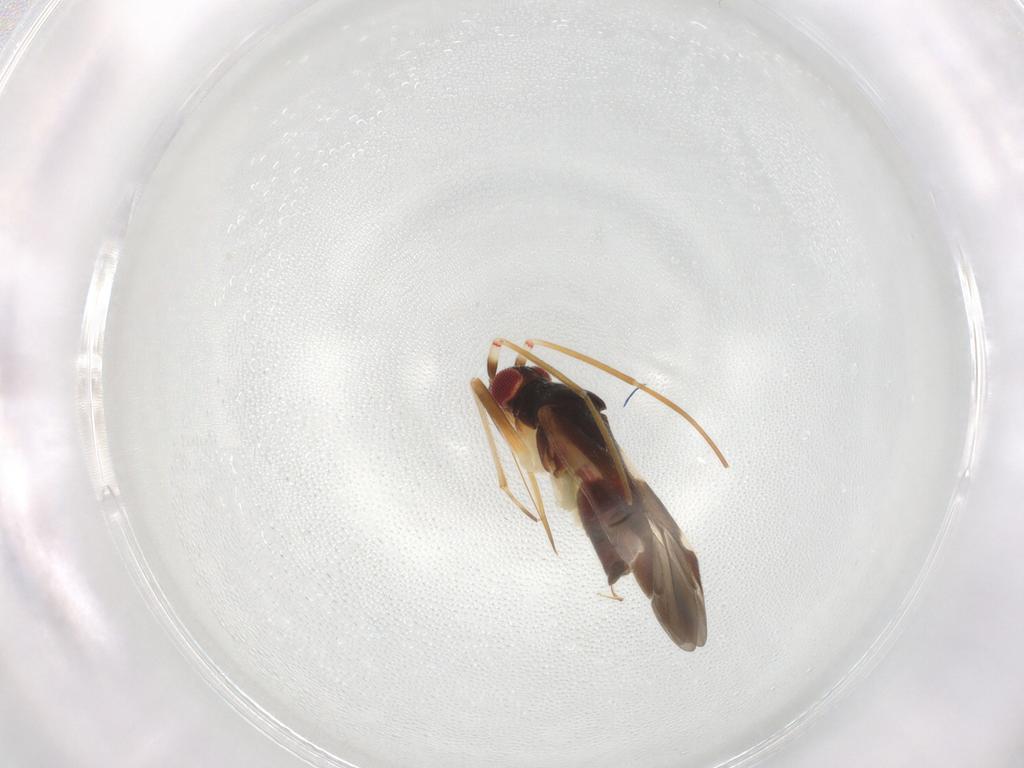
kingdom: Animalia
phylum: Arthropoda
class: Insecta
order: Hemiptera
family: Miridae
